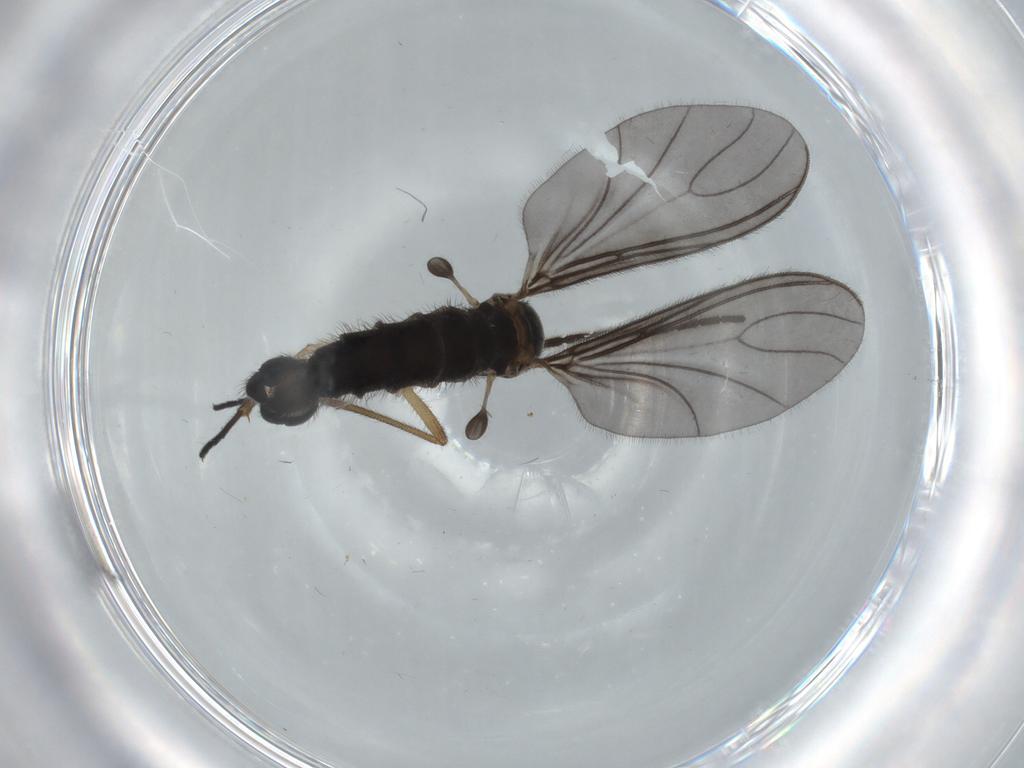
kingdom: Animalia
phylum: Arthropoda
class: Insecta
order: Diptera
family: Sciaridae
